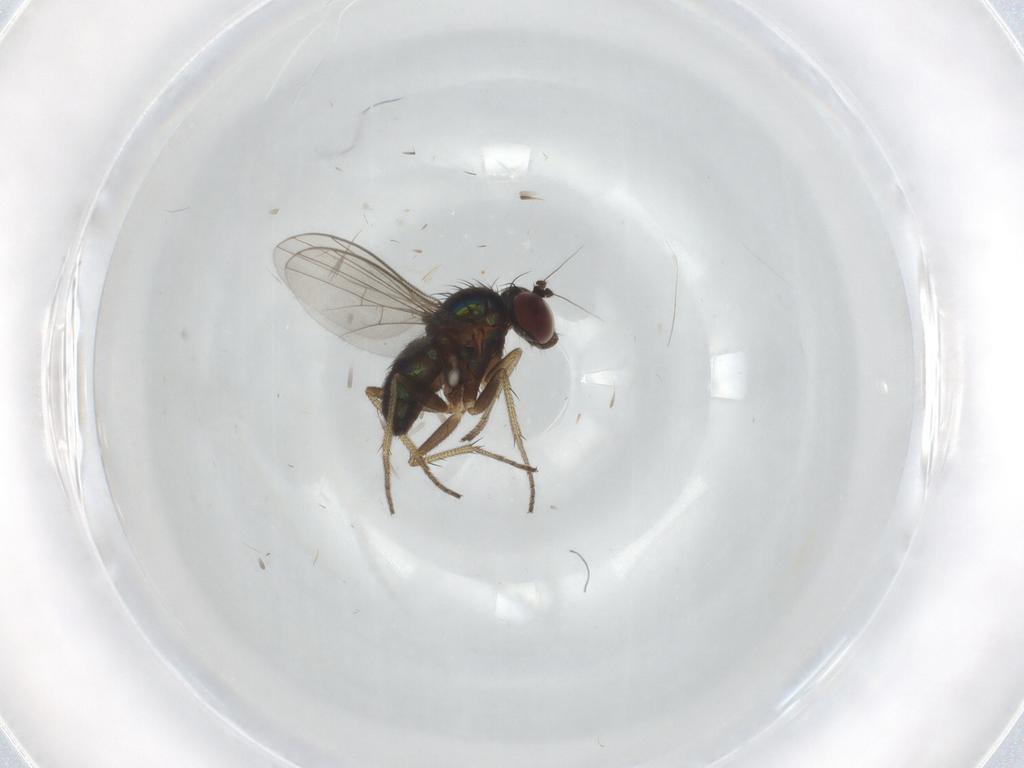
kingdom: Animalia
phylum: Arthropoda
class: Insecta
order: Diptera
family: Dolichopodidae
